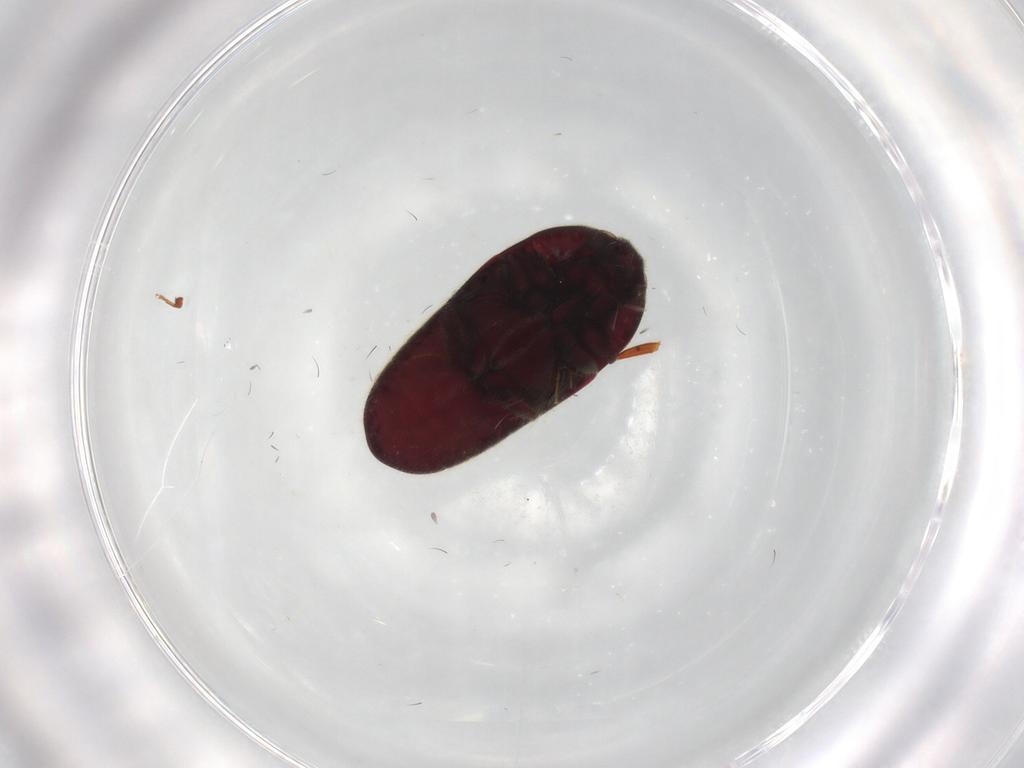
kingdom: Animalia
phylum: Arthropoda
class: Insecta
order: Coleoptera
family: Throscidae
